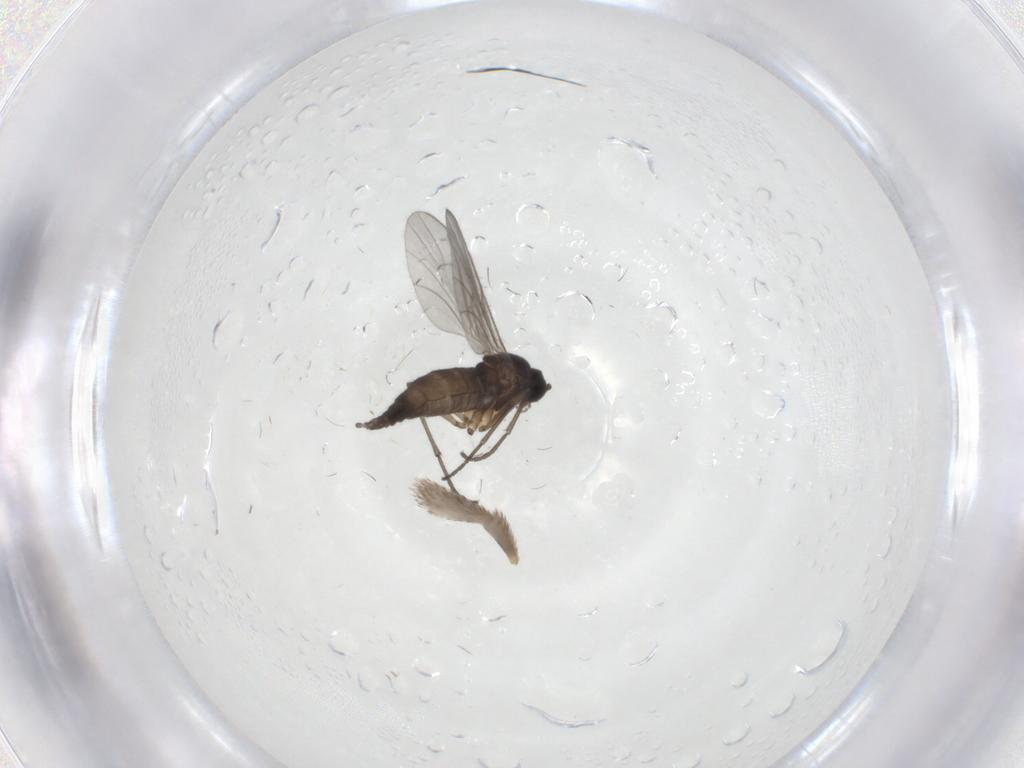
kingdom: Animalia
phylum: Arthropoda
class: Insecta
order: Diptera
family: Sciaridae
